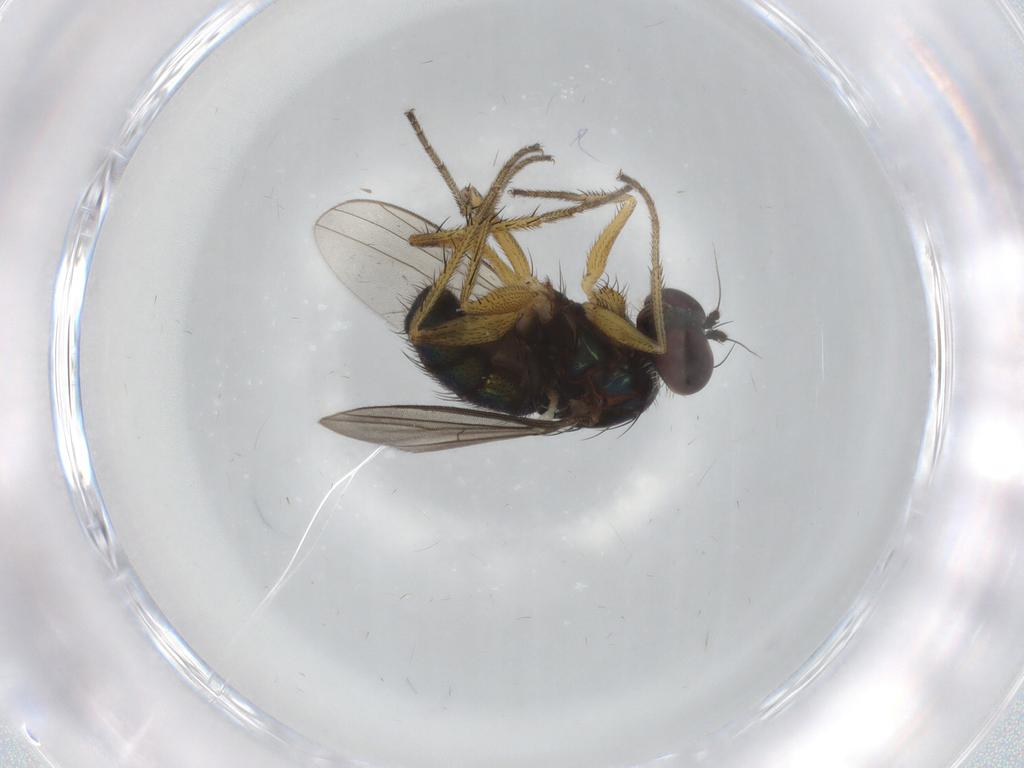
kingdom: Animalia
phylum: Arthropoda
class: Insecta
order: Diptera
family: Dolichopodidae
